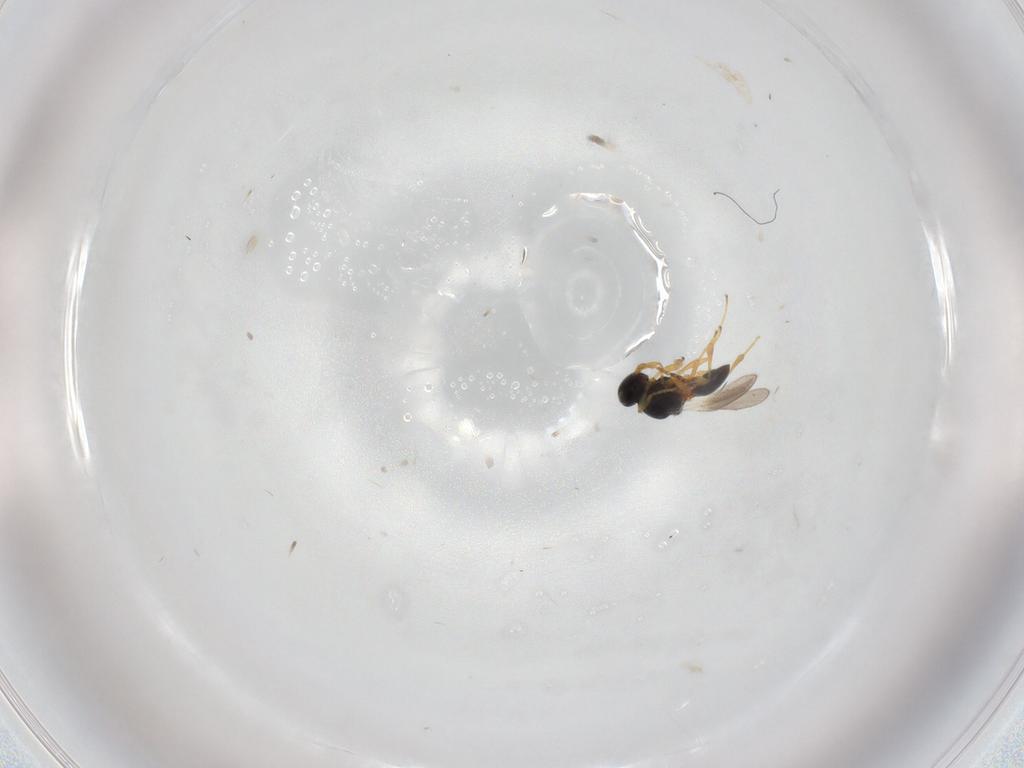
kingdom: Animalia
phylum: Arthropoda
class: Insecta
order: Hymenoptera
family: Platygastridae
